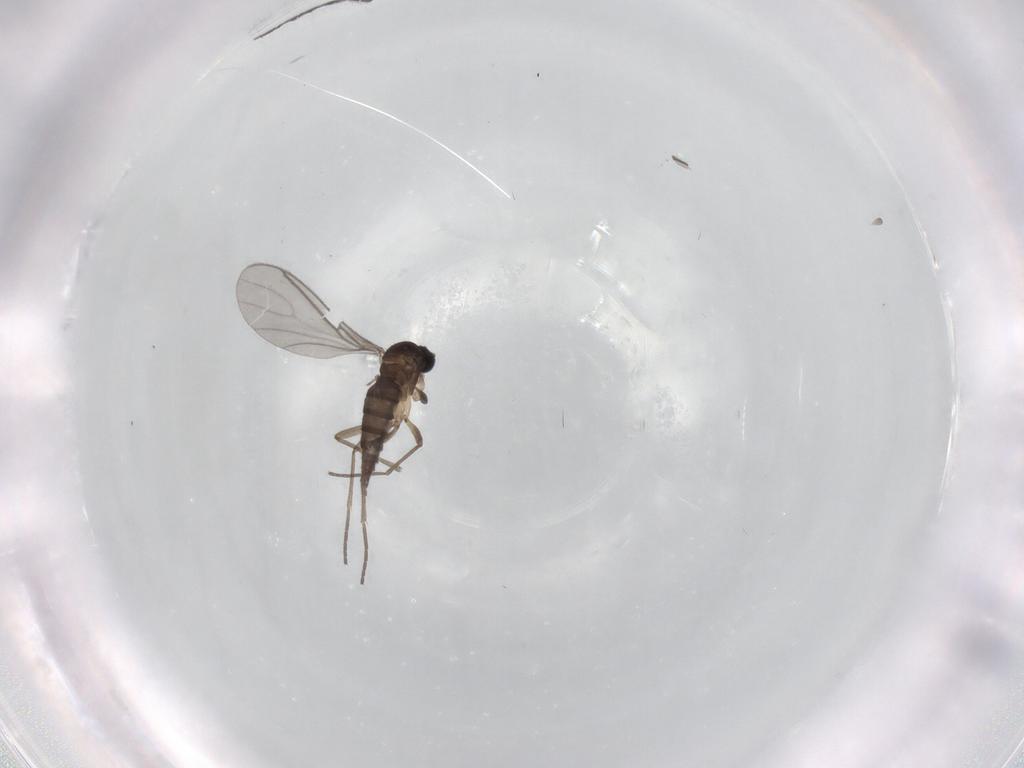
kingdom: Animalia
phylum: Arthropoda
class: Insecta
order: Diptera
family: Sciaridae
